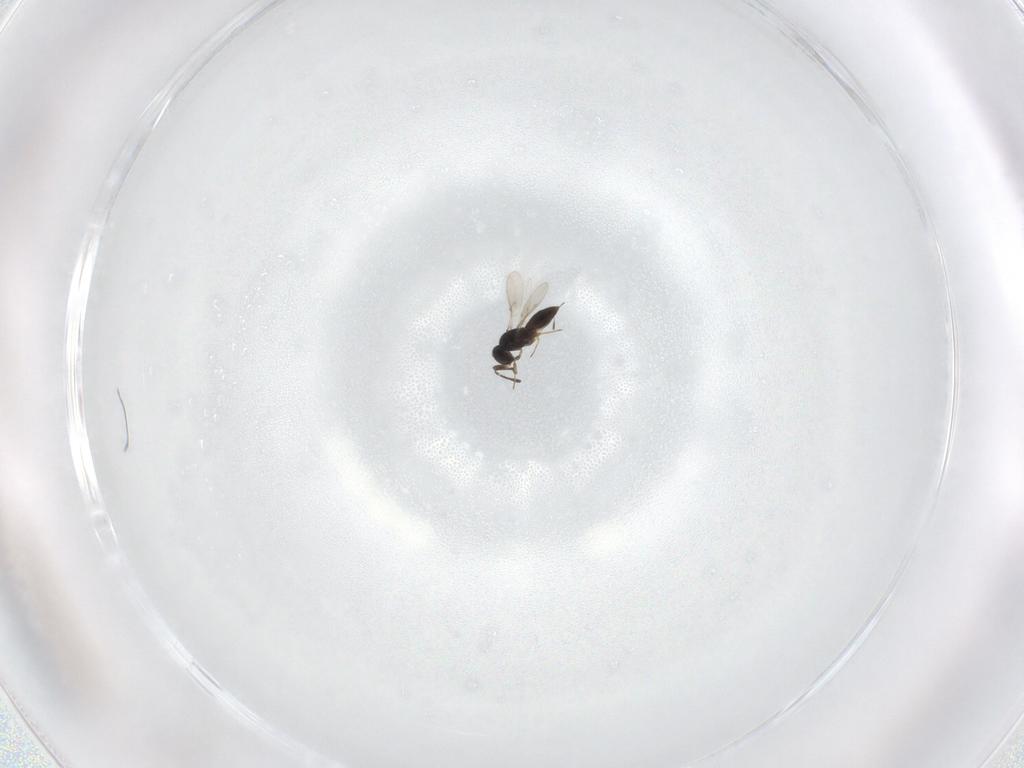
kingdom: Animalia
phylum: Arthropoda
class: Insecta
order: Hymenoptera
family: Scelionidae
